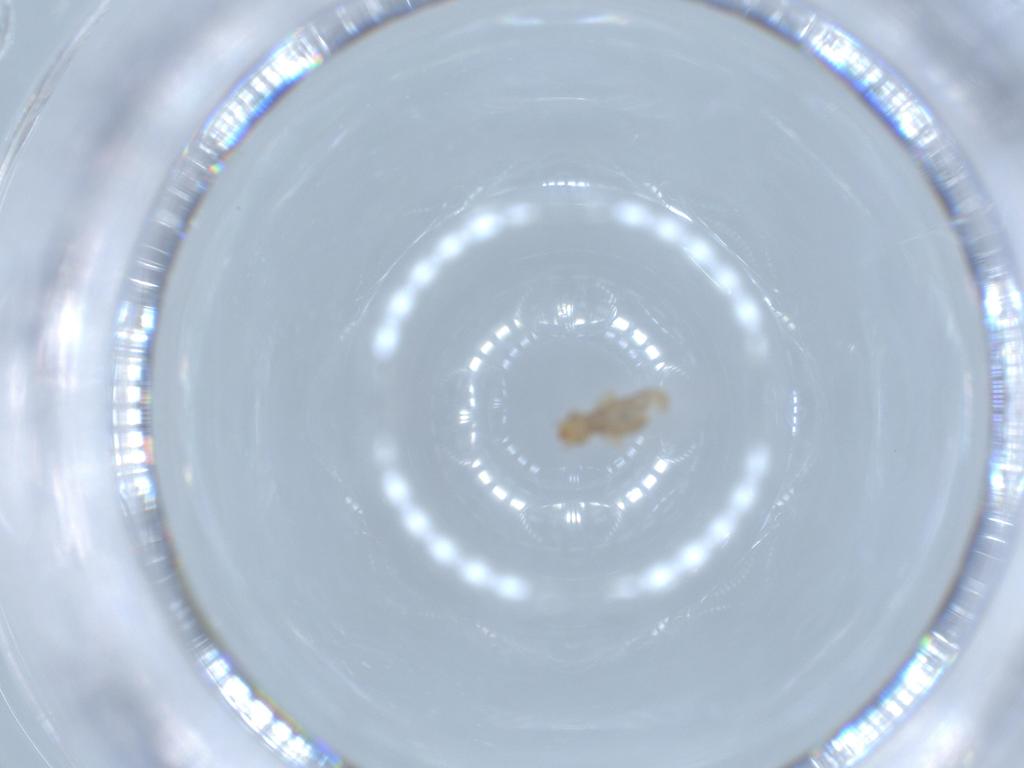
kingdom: Animalia
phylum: Arthropoda
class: Insecta
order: Psocodea
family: Liposcelididae
